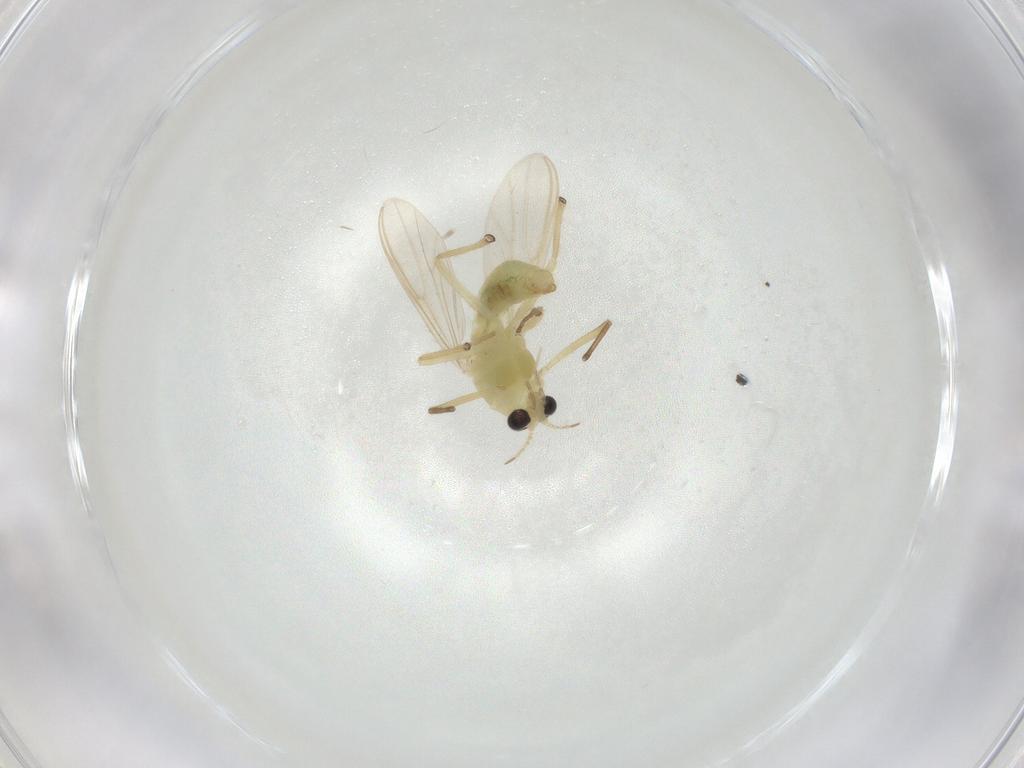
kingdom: Animalia
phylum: Arthropoda
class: Insecta
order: Diptera
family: Chironomidae
